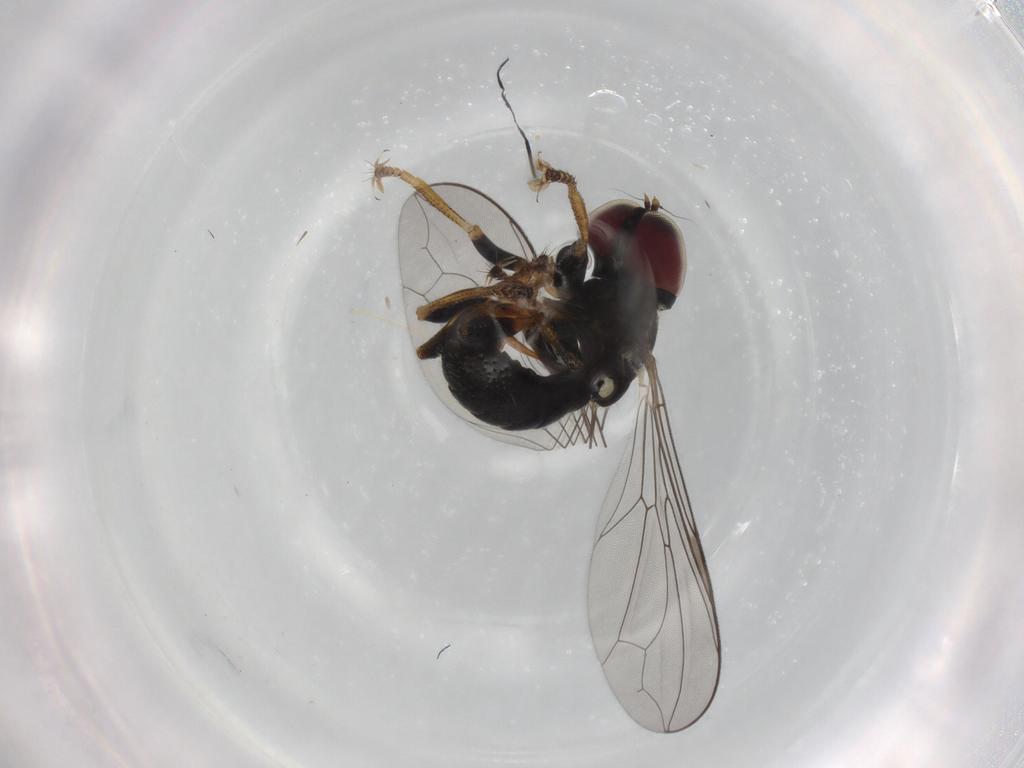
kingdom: Animalia
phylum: Arthropoda
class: Insecta
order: Diptera
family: Pipunculidae
